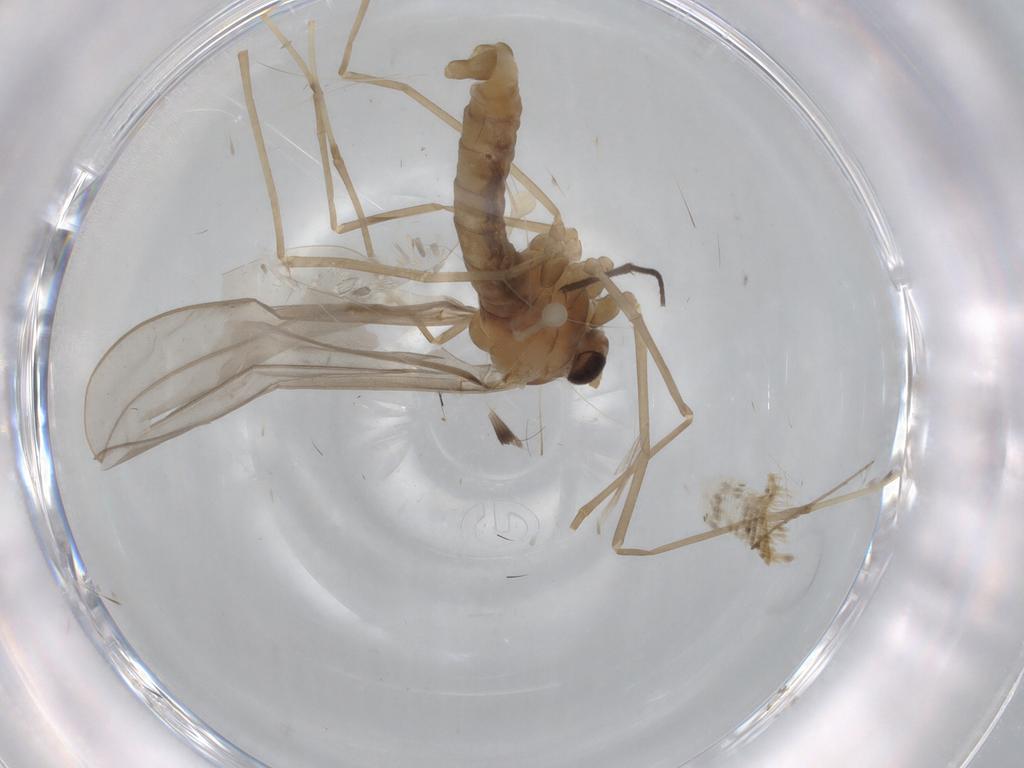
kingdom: Animalia
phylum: Arthropoda
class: Insecta
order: Diptera
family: Cecidomyiidae
